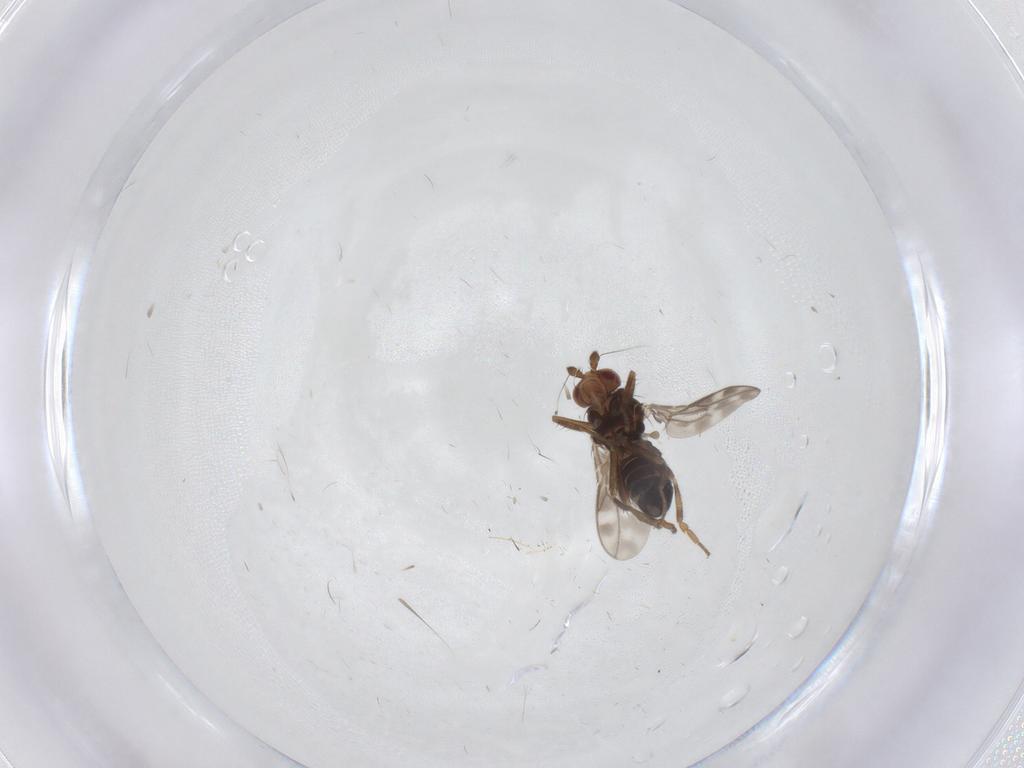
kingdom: Animalia
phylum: Arthropoda
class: Insecta
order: Diptera
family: Sphaeroceridae
